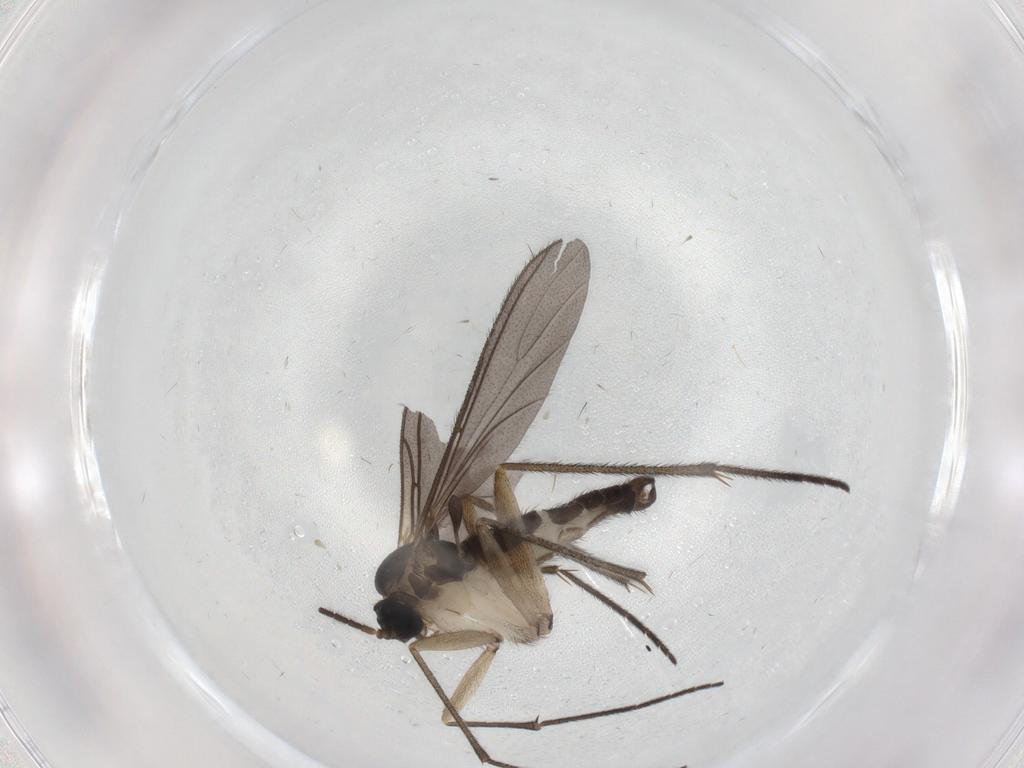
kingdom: Animalia
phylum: Arthropoda
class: Insecta
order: Diptera
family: Sciaridae
